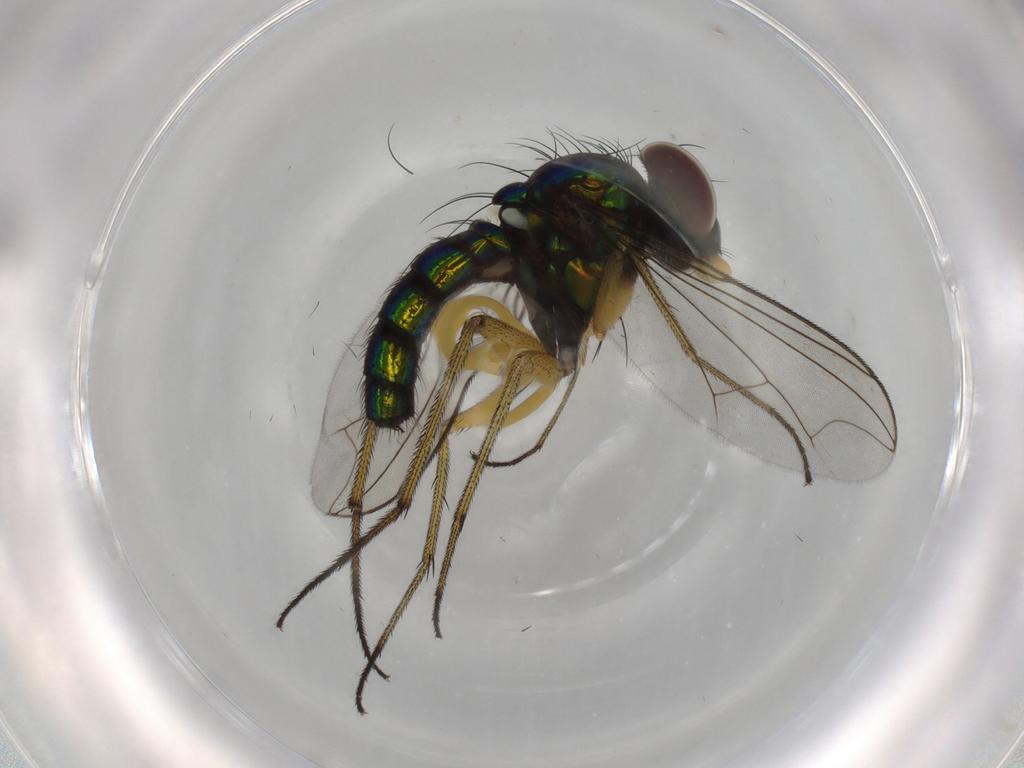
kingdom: Animalia
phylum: Arthropoda
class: Insecta
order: Diptera
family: Dolichopodidae
